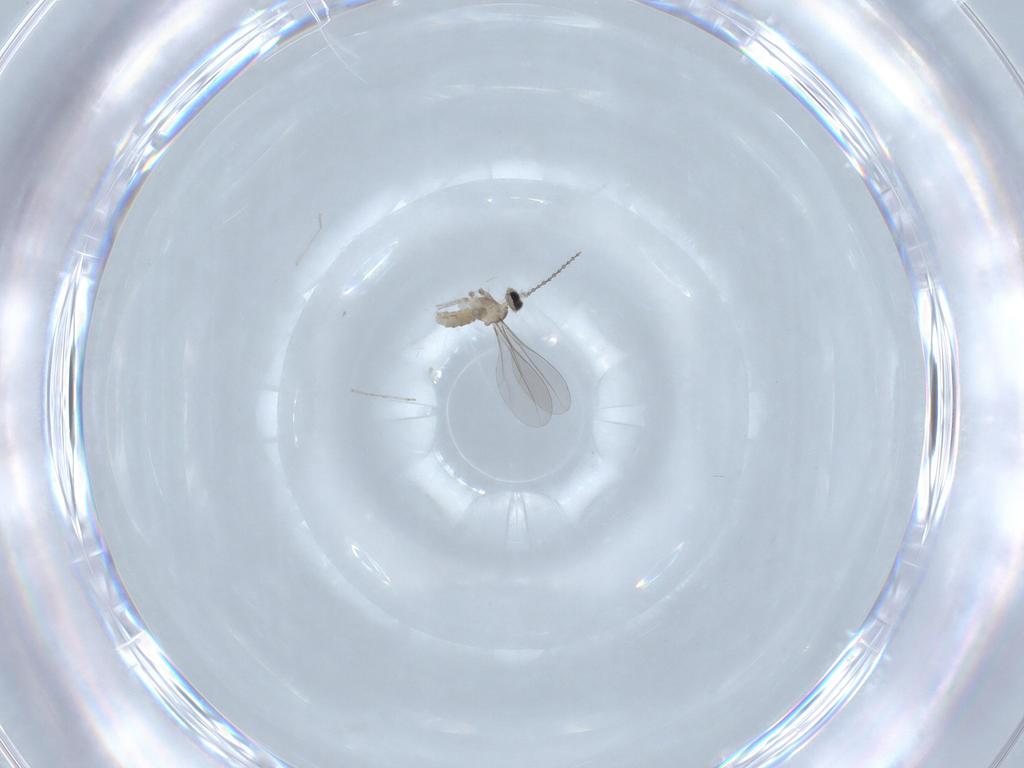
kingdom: Animalia
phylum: Arthropoda
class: Insecta
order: Diptera
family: Cecidomyiidae
